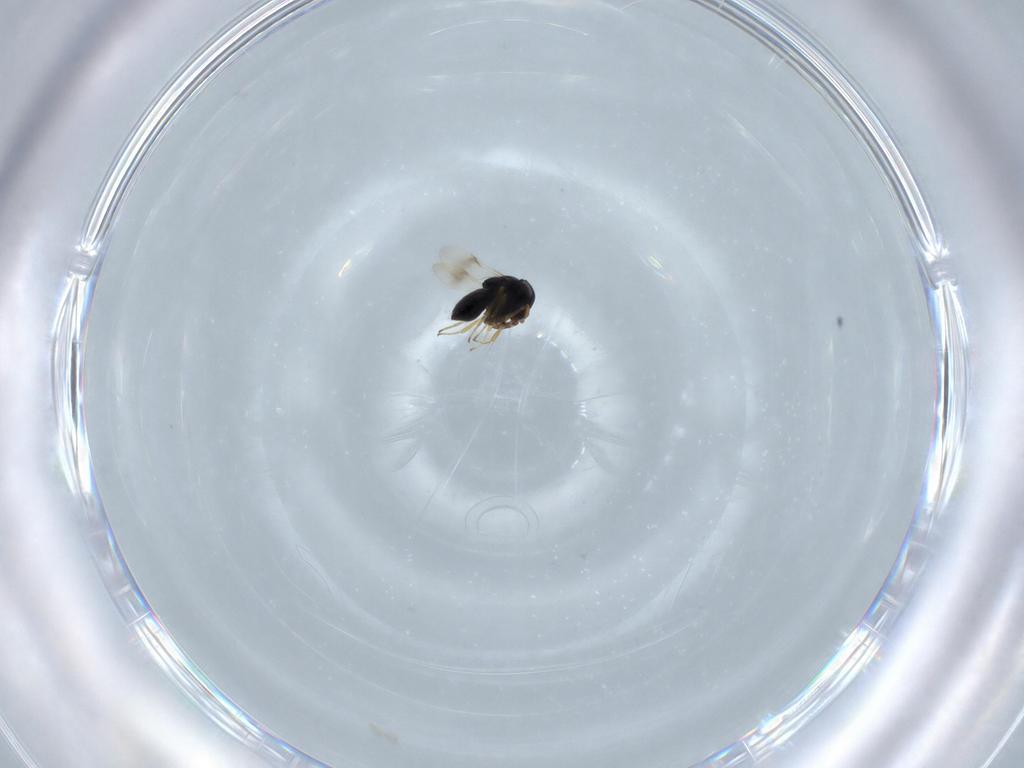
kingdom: Animalia
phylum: Arthropoda
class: Insecta
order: Hymenoptera
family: Scelionidae
